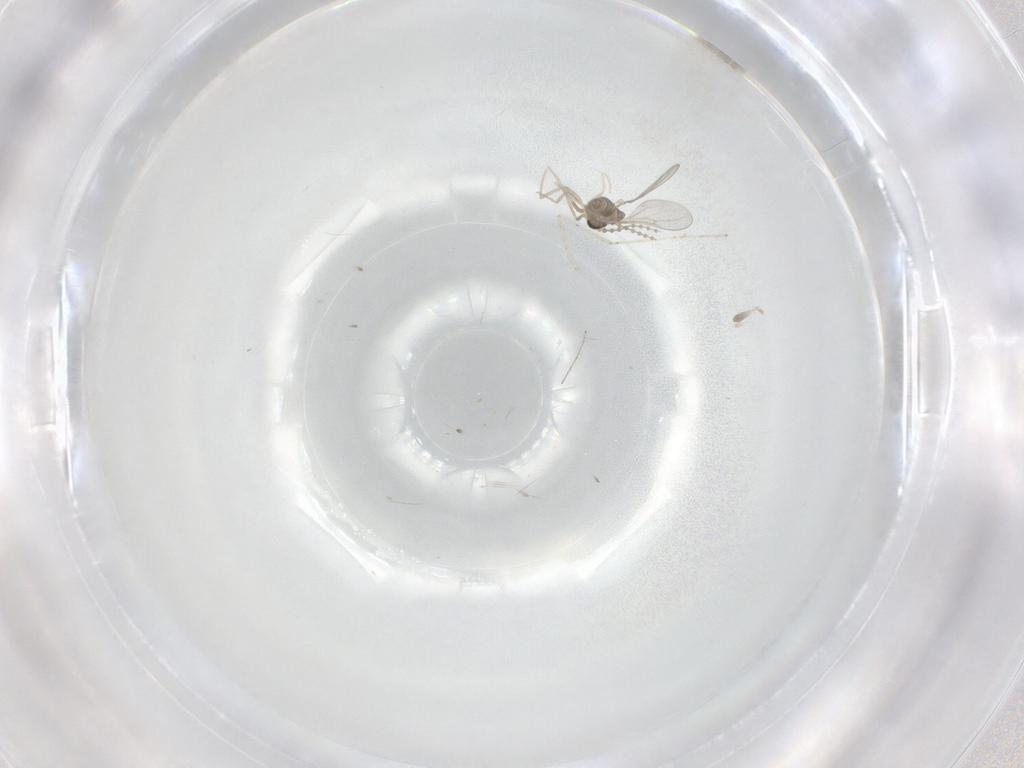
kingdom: Animalia
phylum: Arthropoda
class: Insecta
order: Diptera
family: Cecidomyiidae
